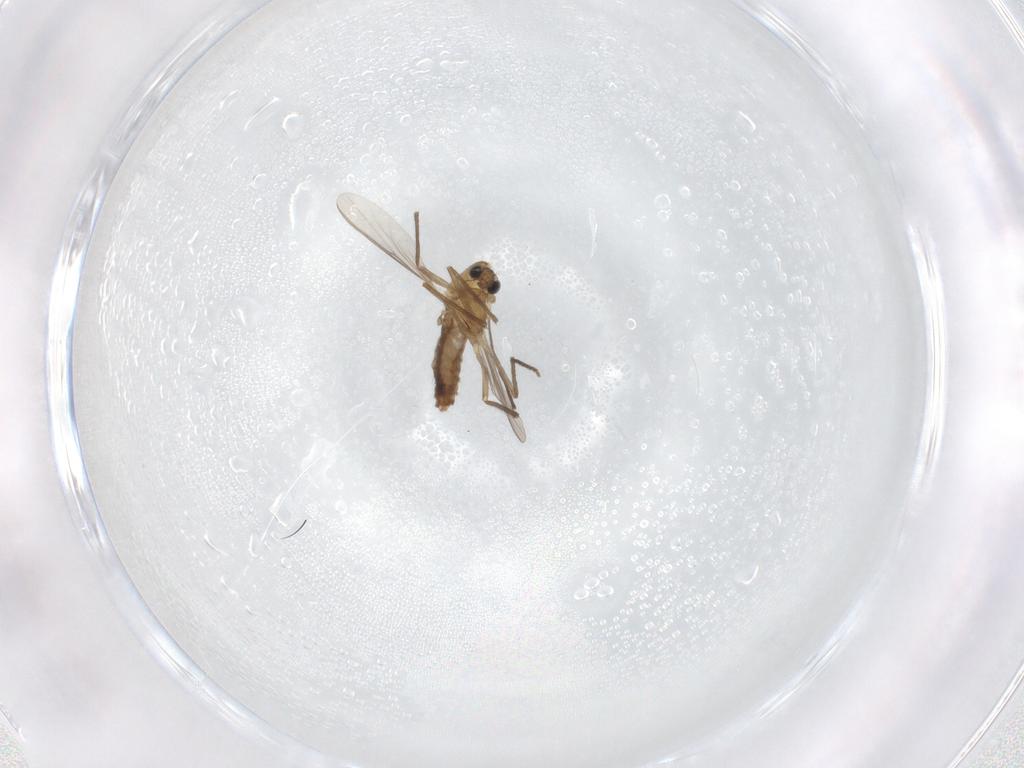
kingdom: Animalia
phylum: Arthropoda
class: Insecta
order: Diptera
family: Chironomidae
